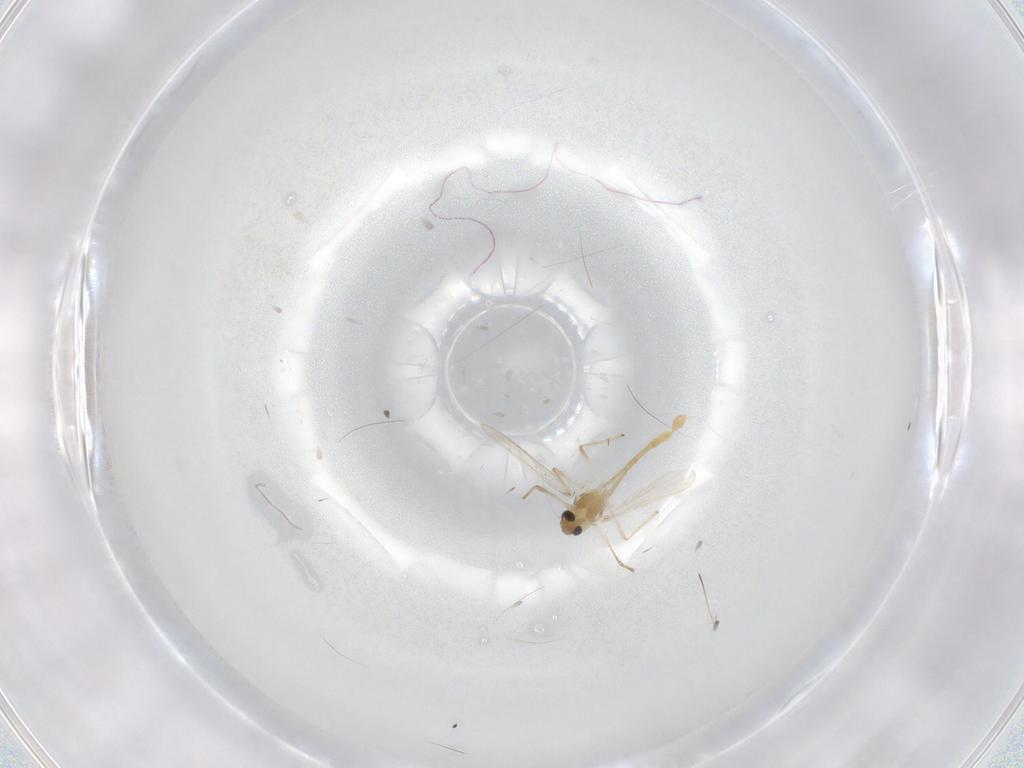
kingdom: Animalia
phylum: Arthropoda
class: Insecta
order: Diptera
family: Chironomidae
